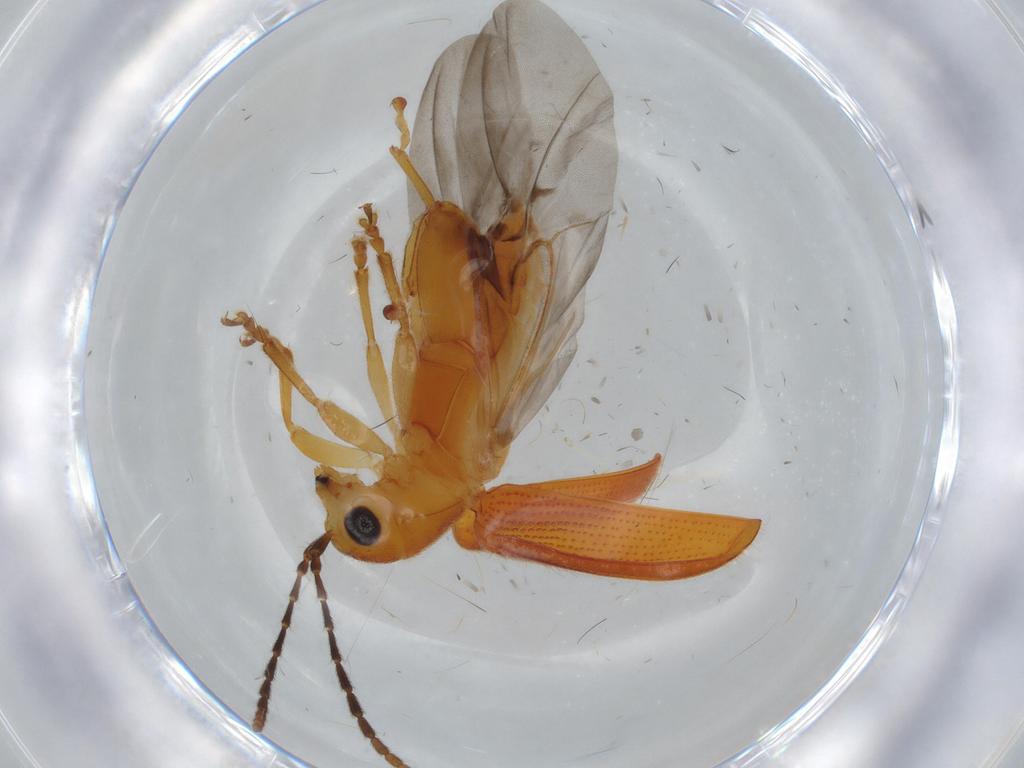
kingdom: Animalia
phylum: Arthropoda
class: Insecta
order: Coleoptera
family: Chrysomelidae
